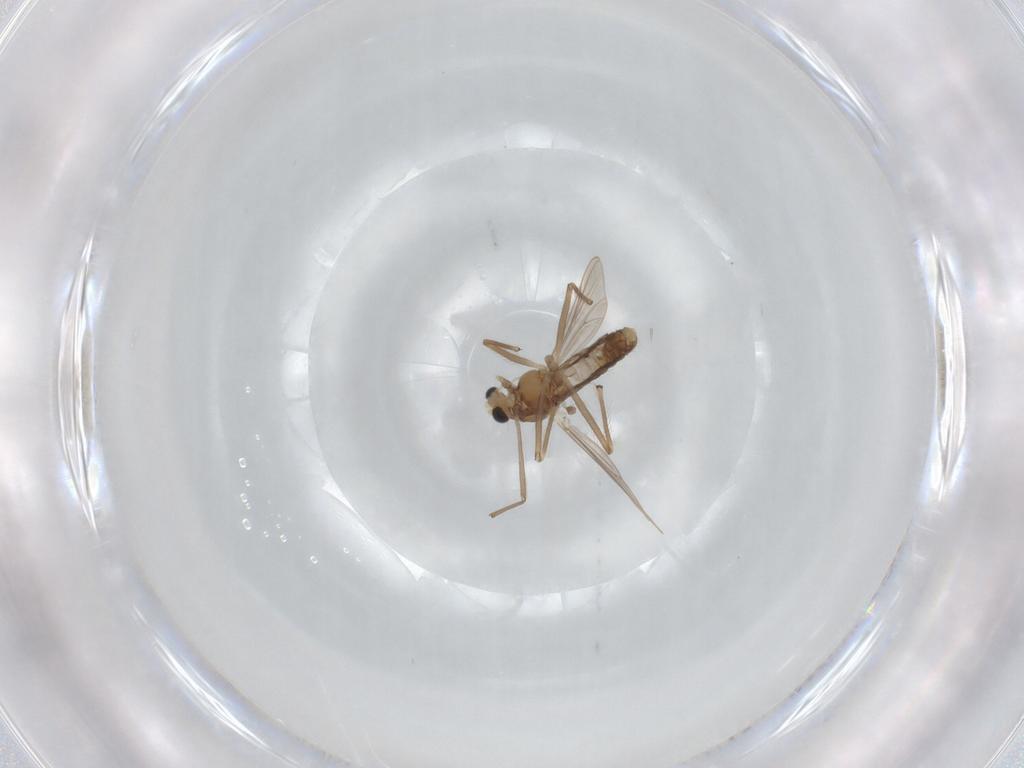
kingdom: Animalia
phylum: Arthropoda
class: Insecta
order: Diptera
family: Chironomidae
